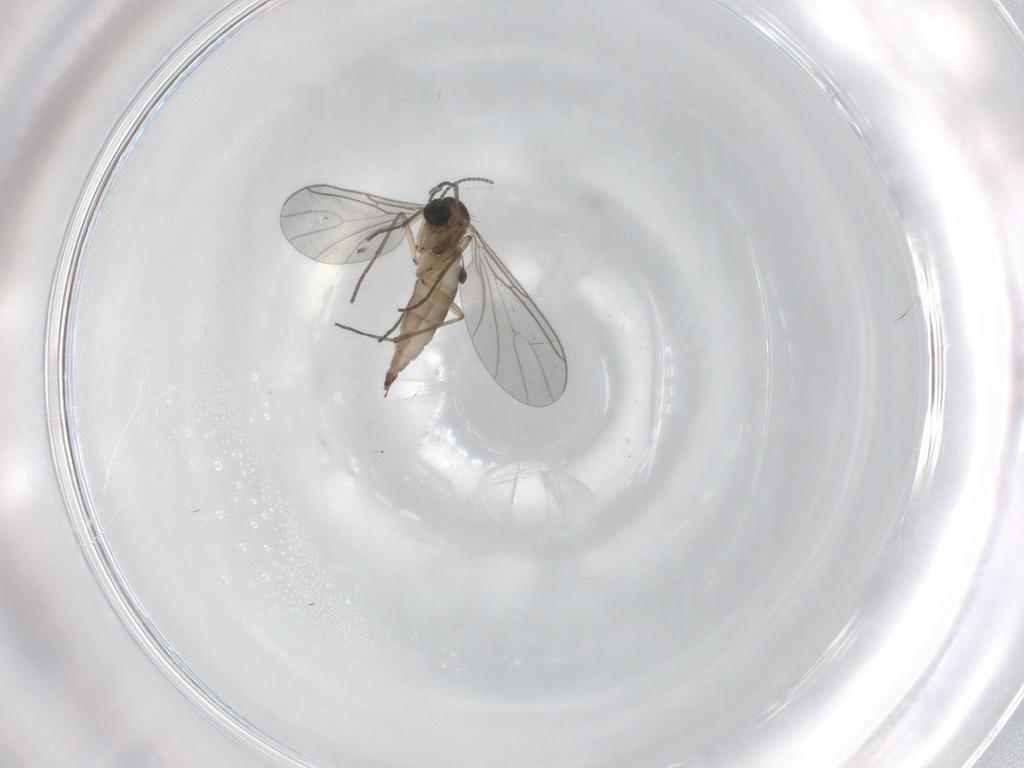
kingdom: Animalia
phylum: Arthropoda
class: Insecta
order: Diptera
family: Sciaridae
